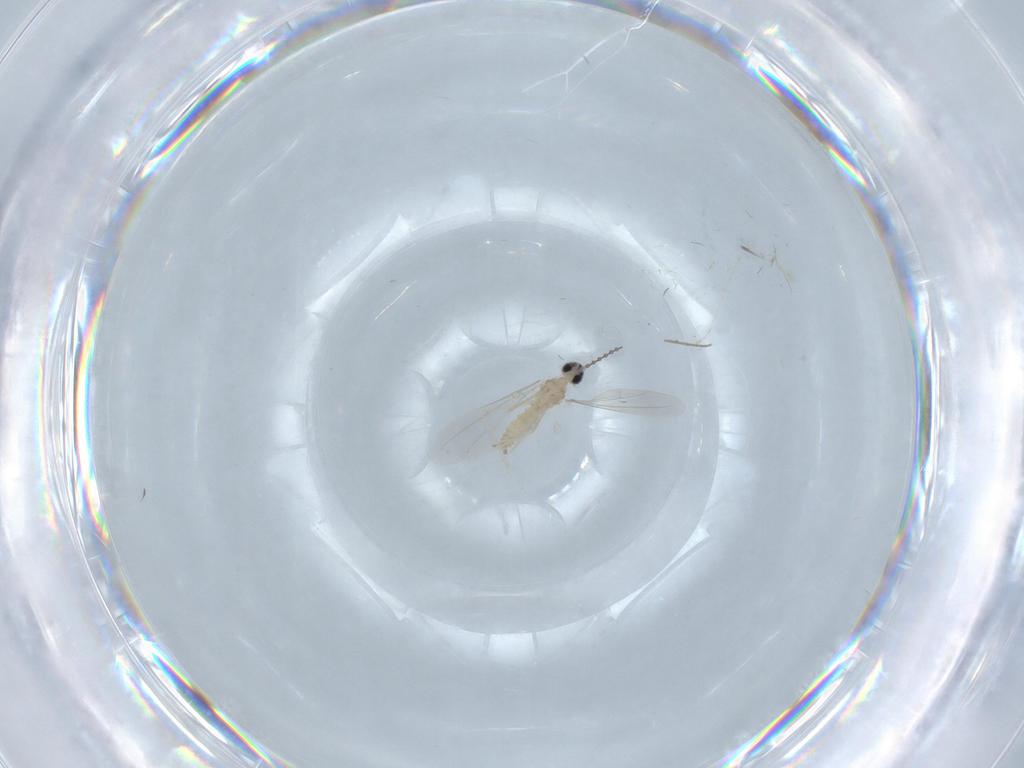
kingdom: Animalia
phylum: Arthropoda
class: Insecta
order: Diptera
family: Cecidomyiidae
